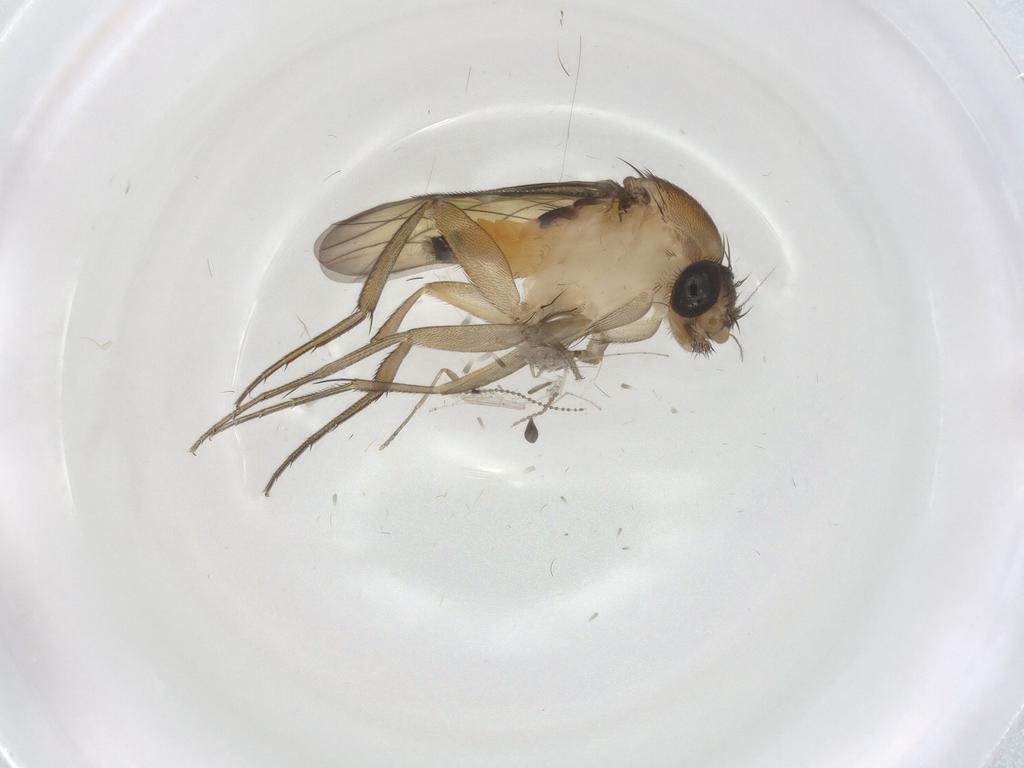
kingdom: Animalia
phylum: Arthropoda
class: Insecta
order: Diptera
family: Sciaridae
